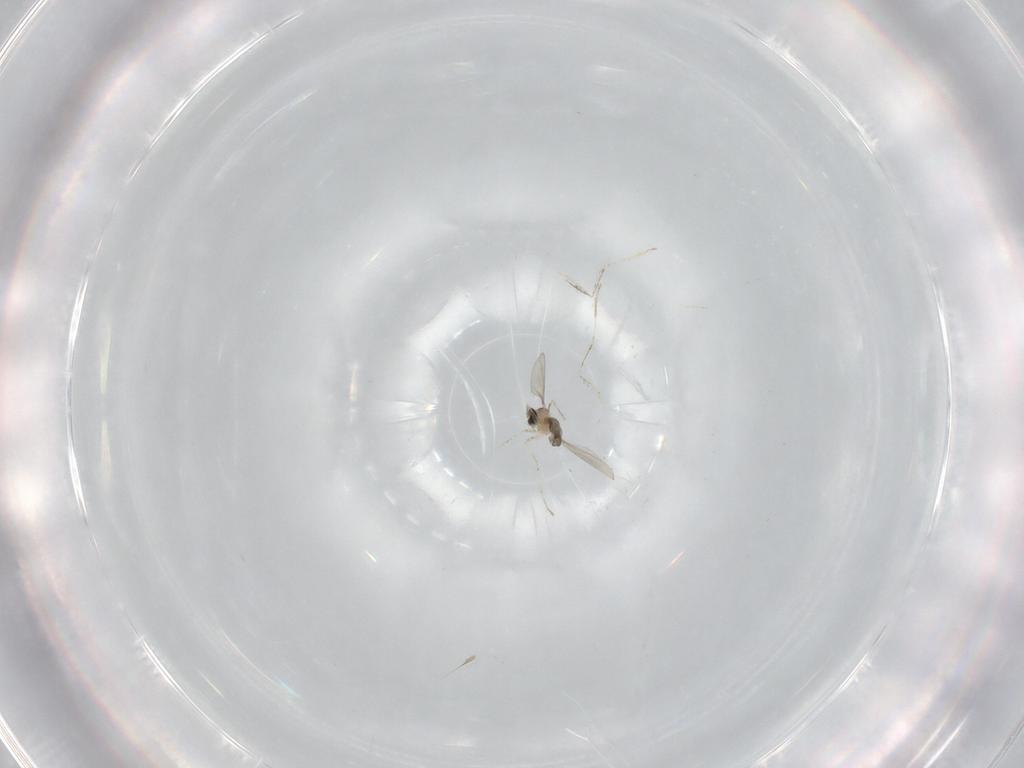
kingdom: Animalia
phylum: Arthropoda
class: Insecta
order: Diptera
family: Cecidomyiidae
